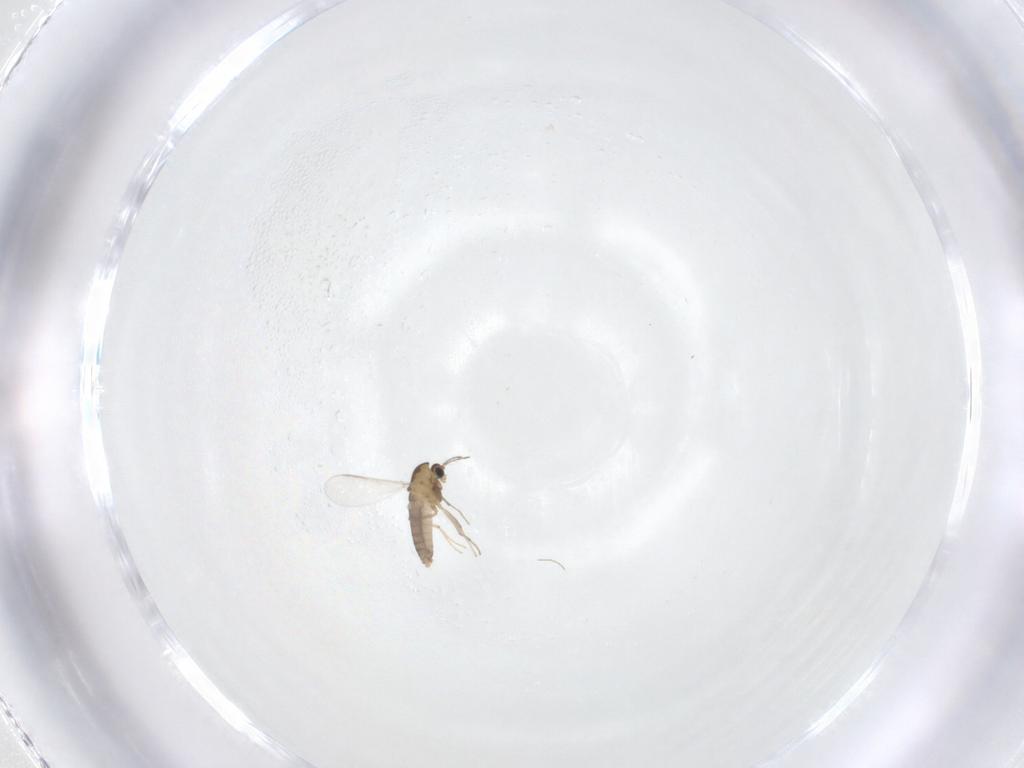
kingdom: Animalia
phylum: Arthropoda
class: Insecta
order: Diptera
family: Chironomidae
